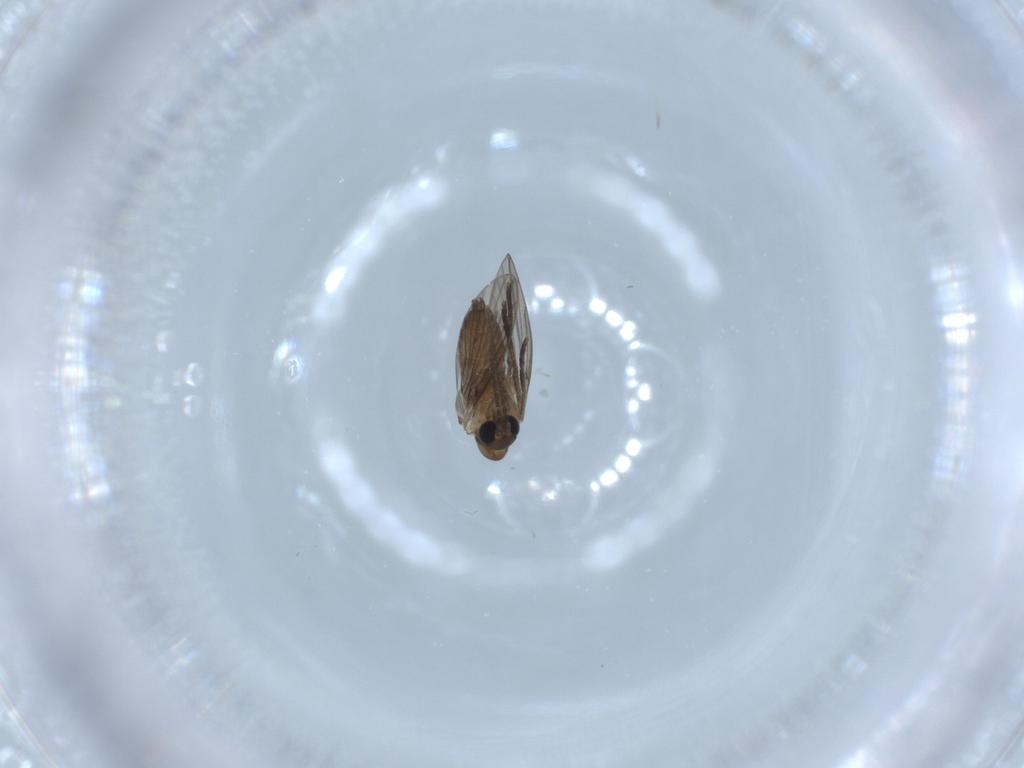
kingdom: Animalia
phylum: Arthropoda
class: Insecta
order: Diptera
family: Psychodidae
